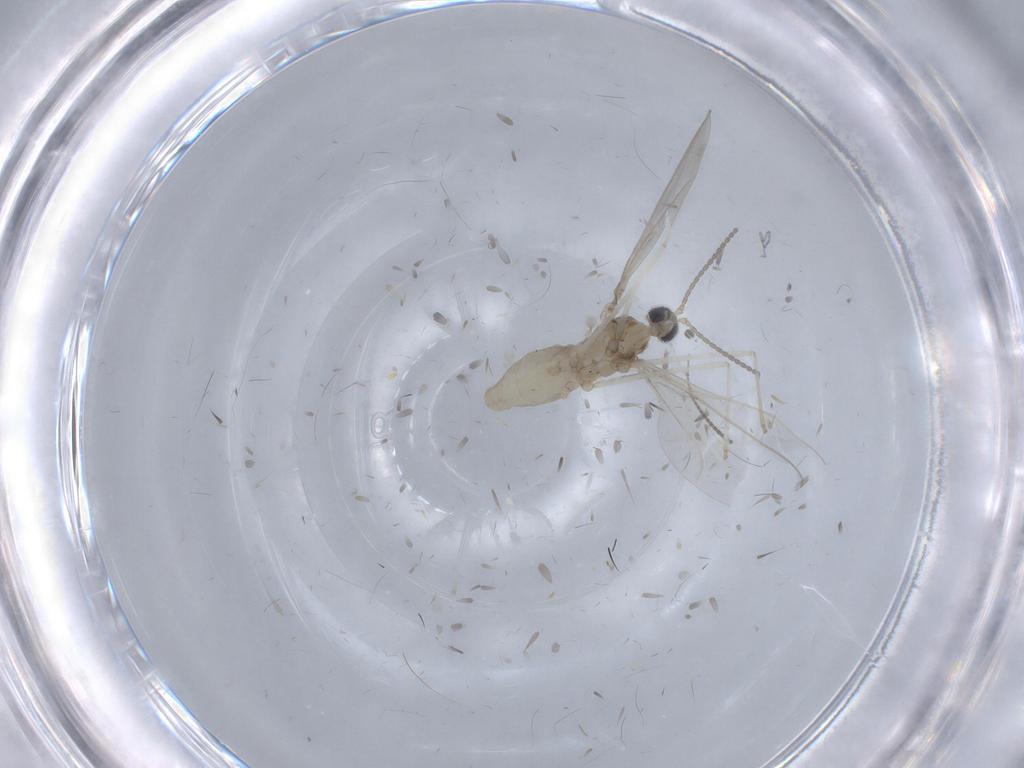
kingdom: Animalia
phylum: Arthropoda
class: Insecta
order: Diptera
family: Cecidomyiidae
